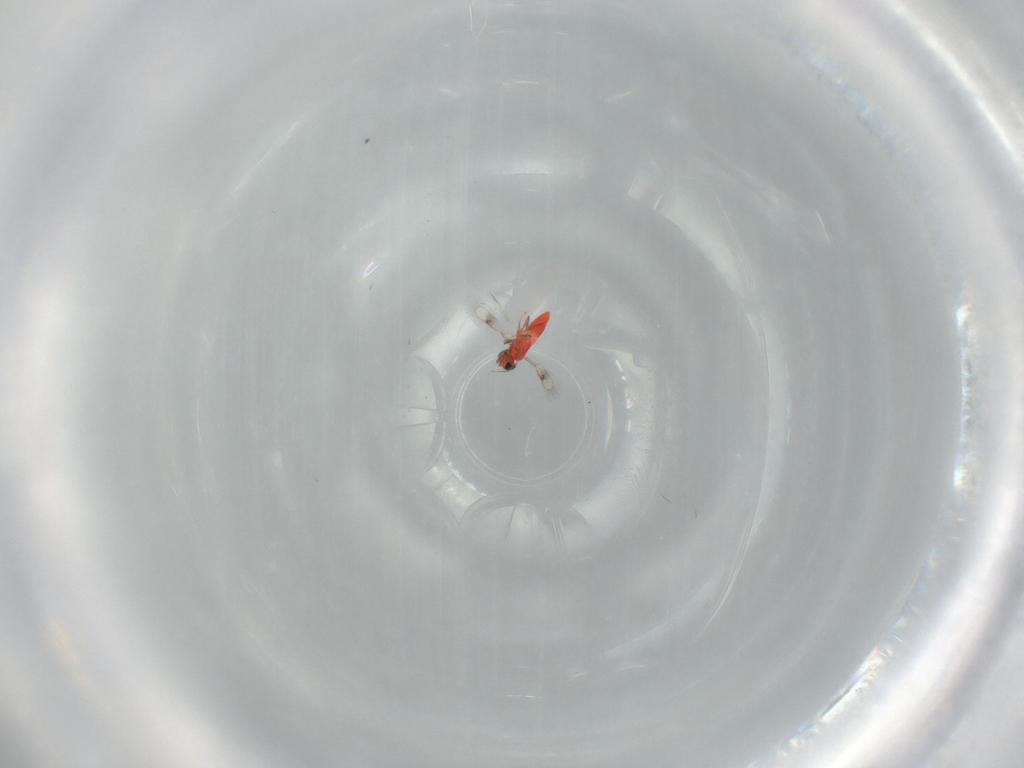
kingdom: Animalia
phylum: Arthropoda
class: Insecta
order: Hymenoptera
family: Trichogrammatidae
